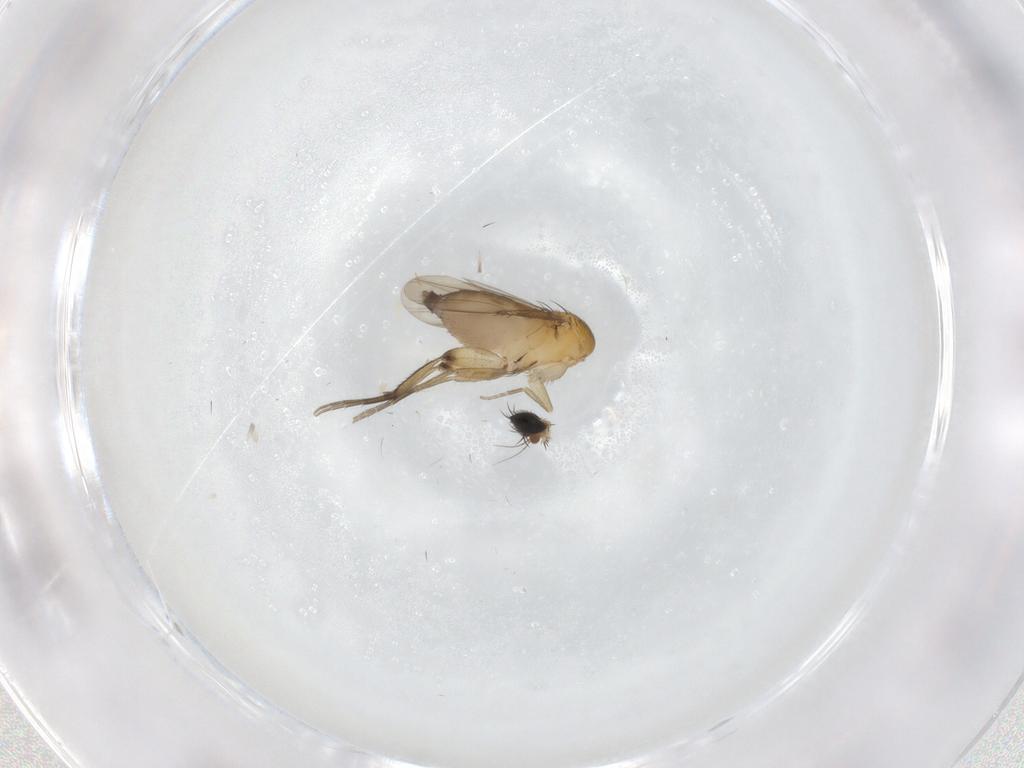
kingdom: Animalia
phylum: Arthropoda
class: Insecta
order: Diptera
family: Phoridae
